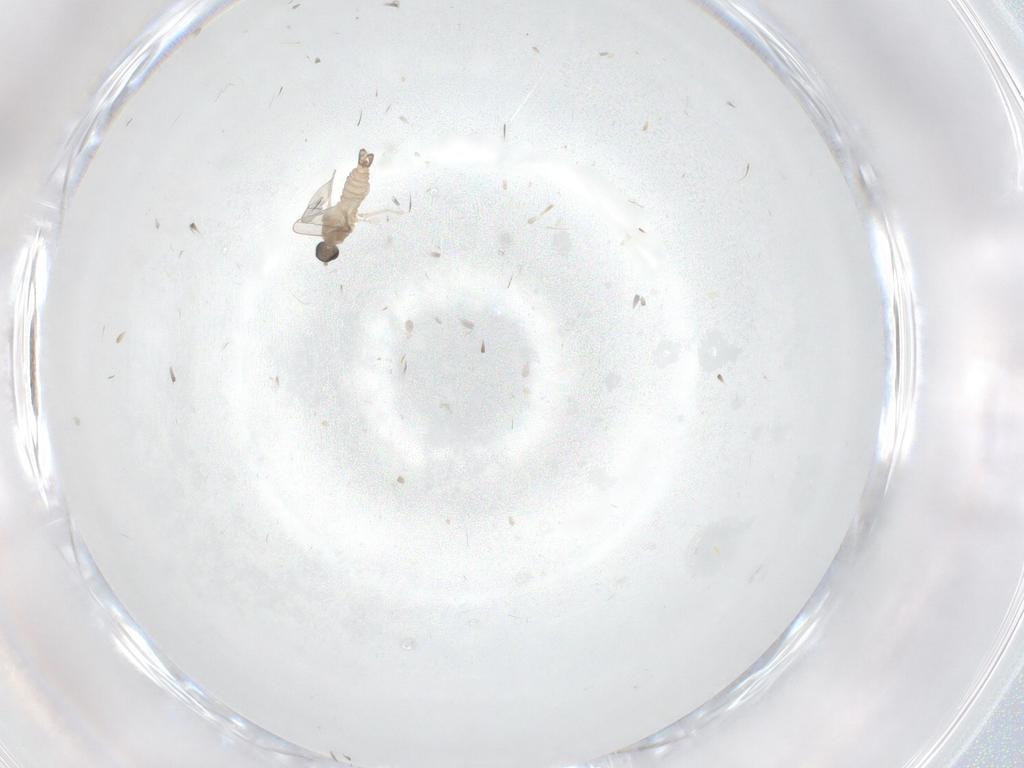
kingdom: Animalia
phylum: Arthropoda
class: Insecta
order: Diptera
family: Cecidomyiidae
